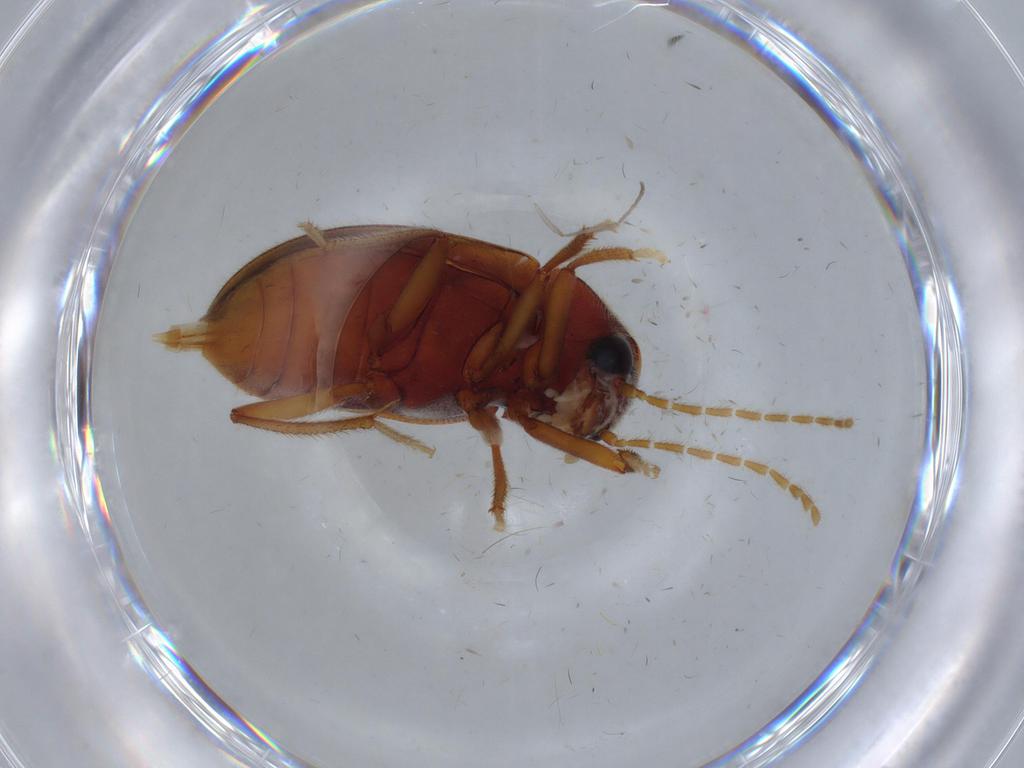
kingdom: Animalia
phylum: Arthropoda
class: Insecta
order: Coleoptera
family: Ptilodactylidae
